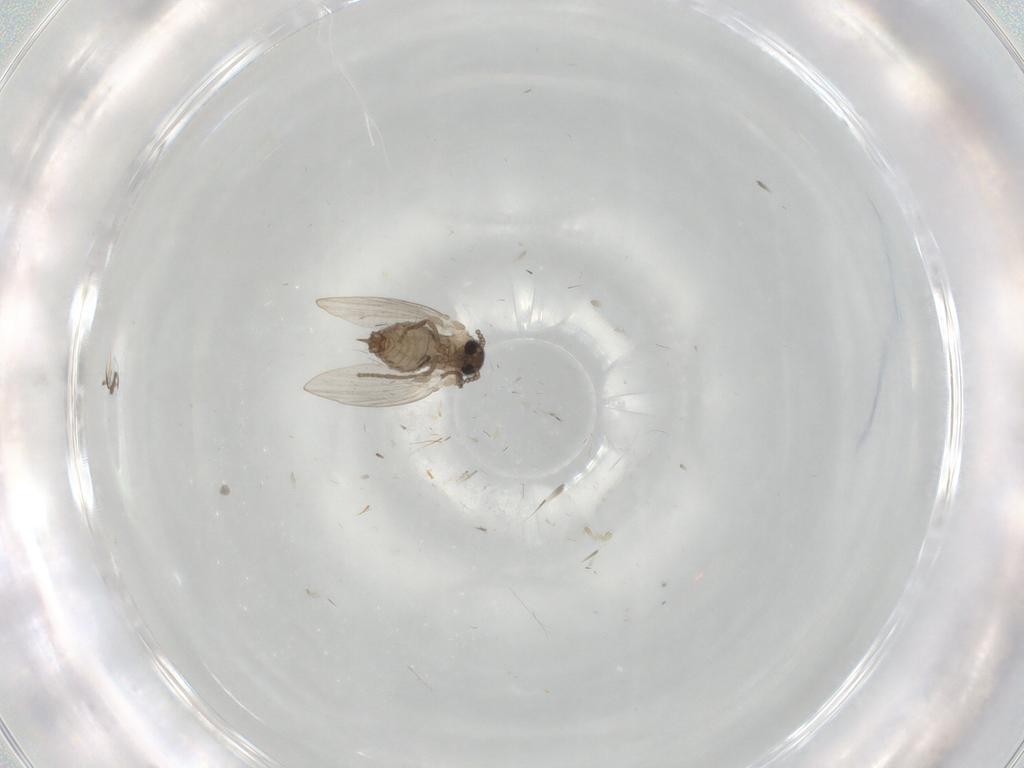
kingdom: Animalia
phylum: Arthropoda
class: Insecta
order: Diptera
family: Psychodidae
